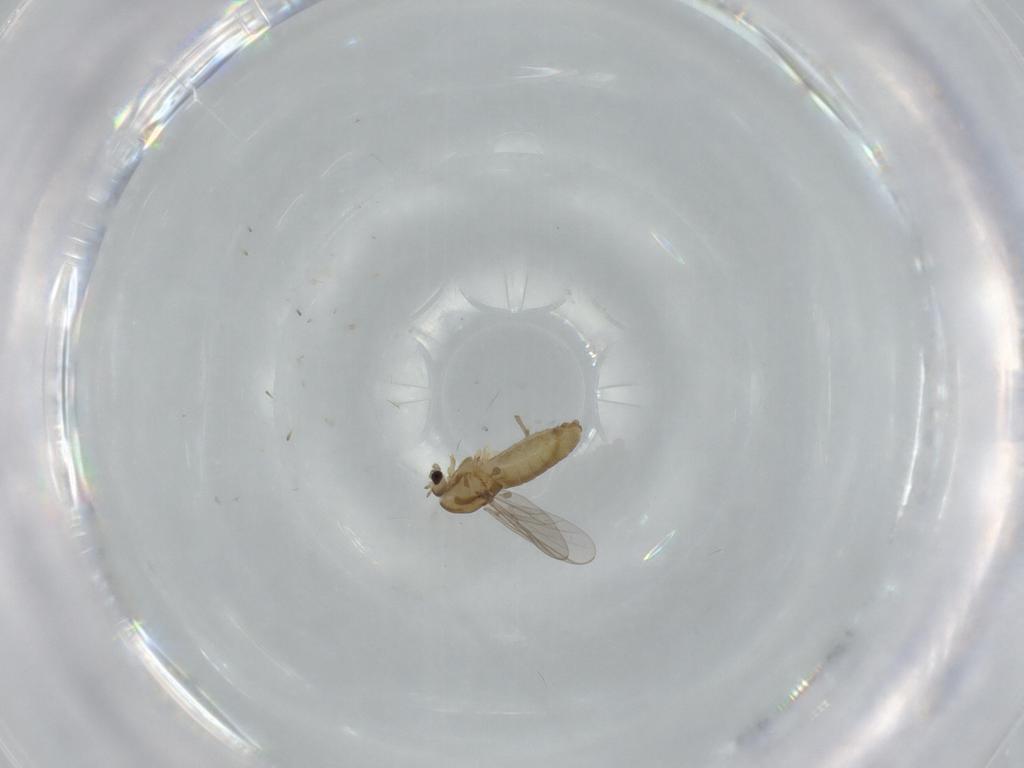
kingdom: Animalia
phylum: Arthropoda
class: Insecta
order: Diptera
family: Chironomidae
